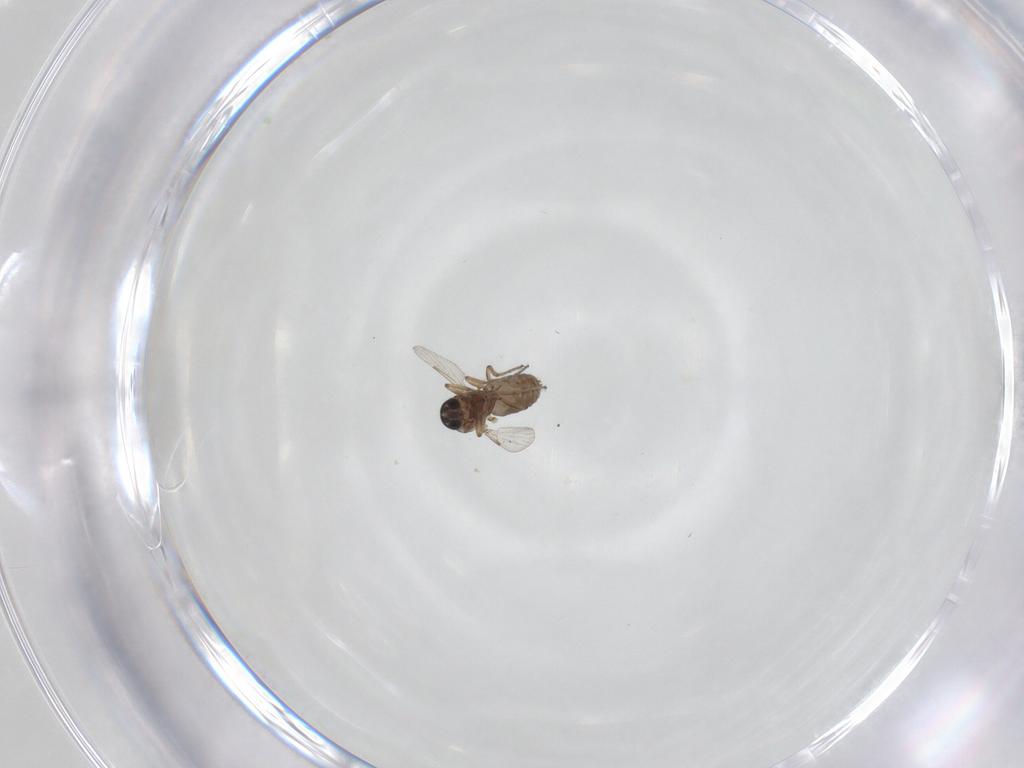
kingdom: Animalia
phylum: Arthropoda
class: Insecta
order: Diptera
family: Ceratopogonidae
